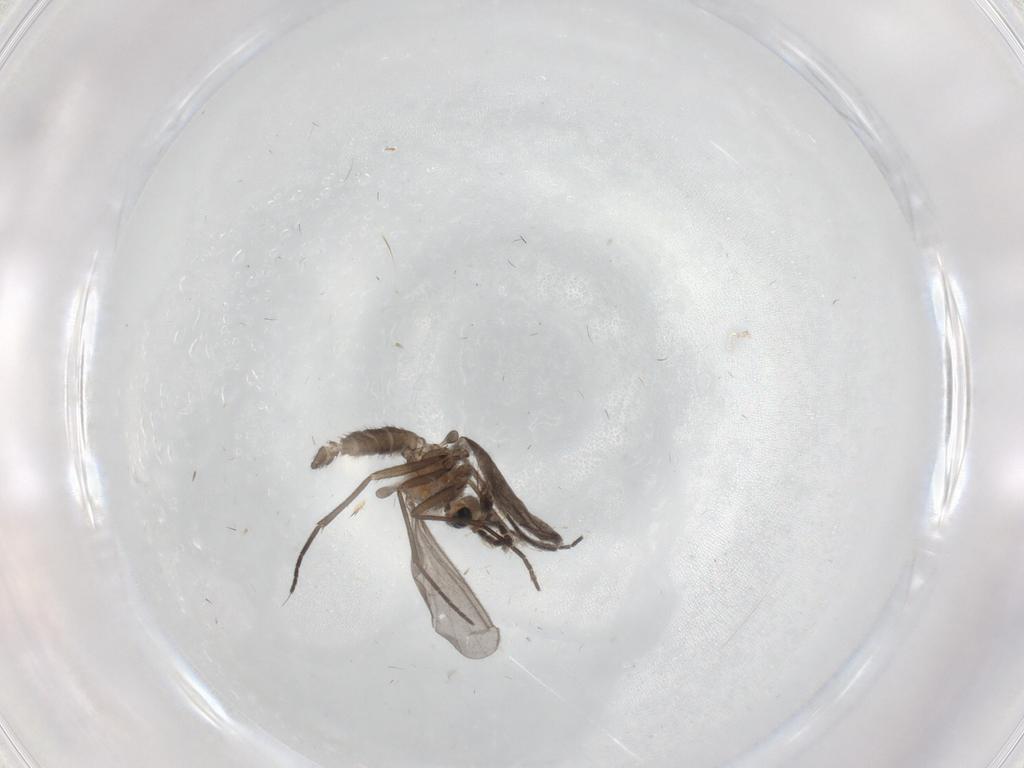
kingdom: Animalia
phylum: Arthropoda
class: Insecta
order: Diptera
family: Sciaridae
